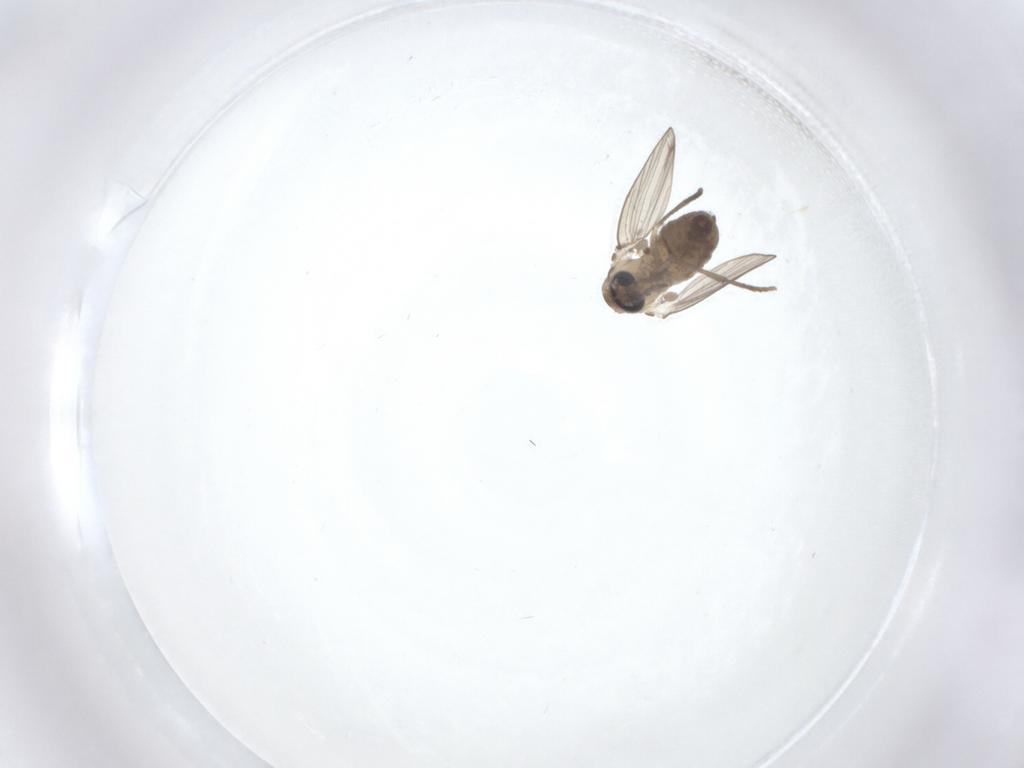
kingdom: Animalia
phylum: Arthropoda
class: Insecta
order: Diptera
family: Psychodidae
